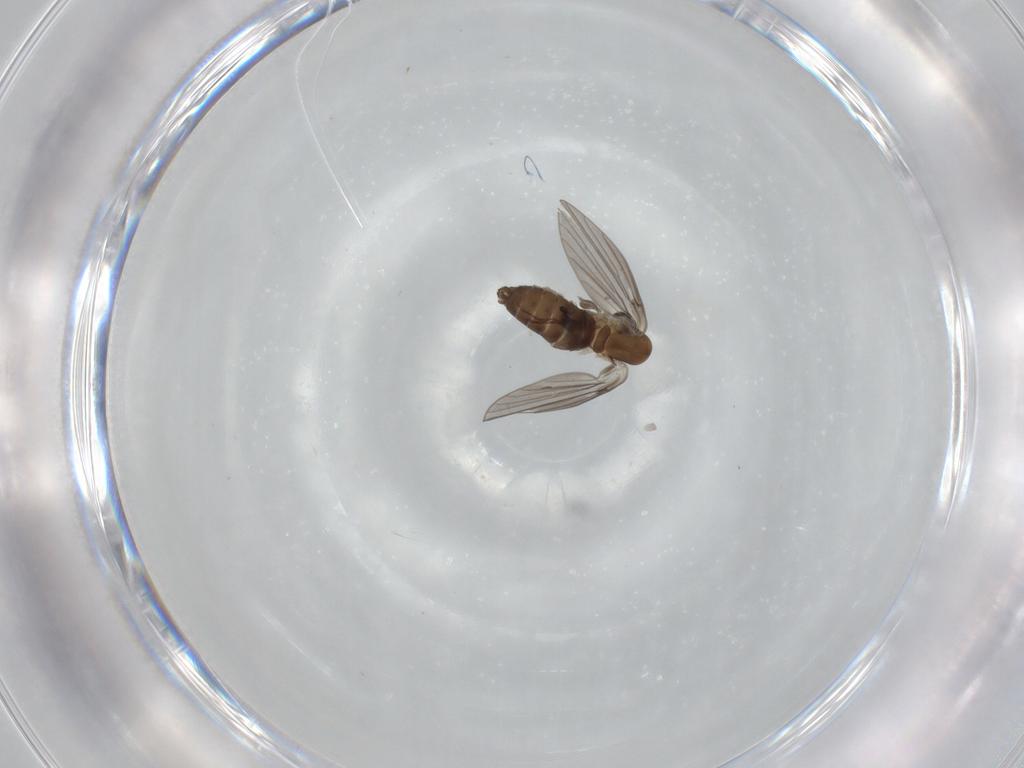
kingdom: Animalia
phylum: Arthropoda
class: Insecta
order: Diptera
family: Psychodidae
